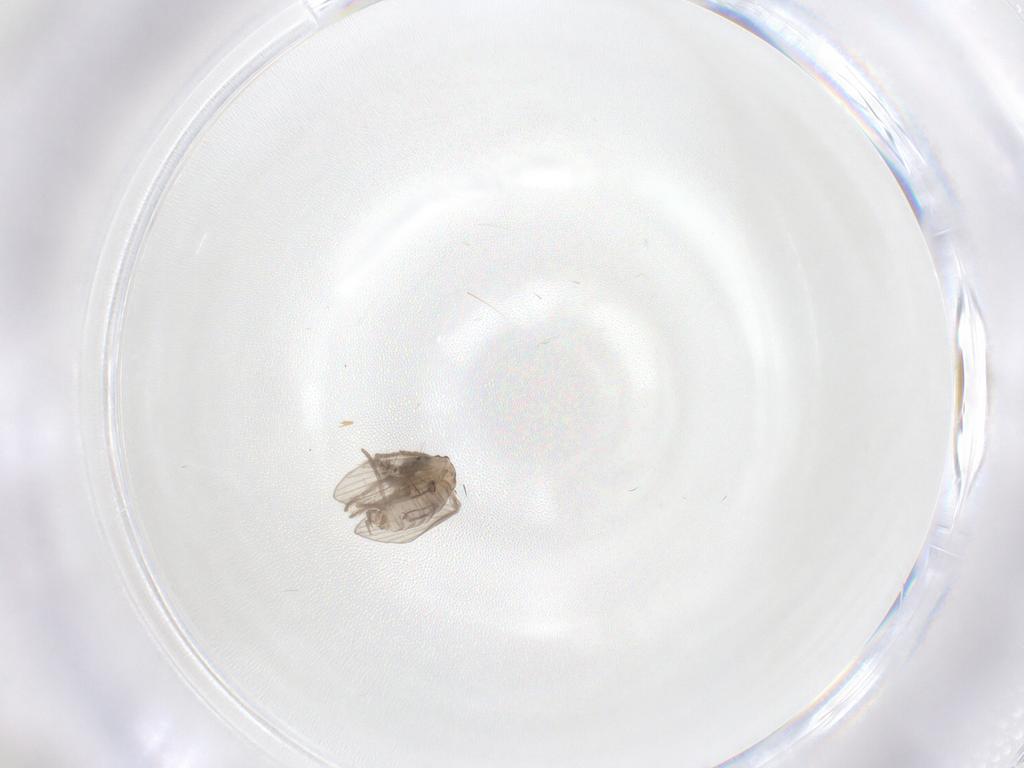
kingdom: Animalia
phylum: Arthropoda
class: Insecta
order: Diptera
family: Psychodidae
